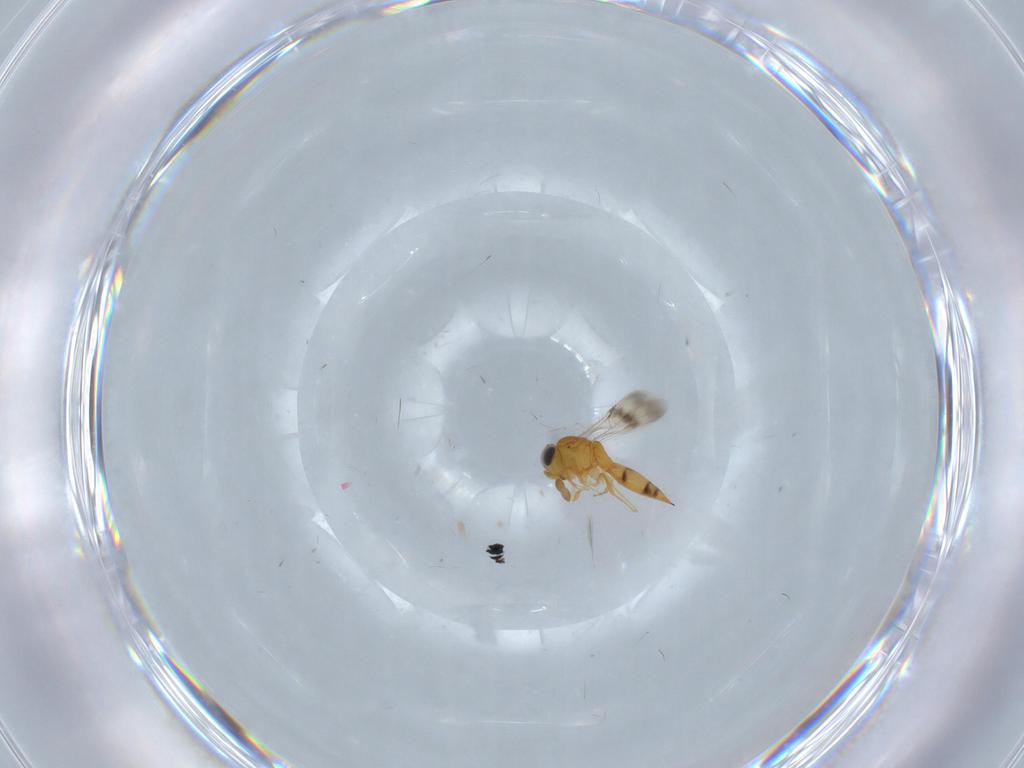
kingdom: Animalia
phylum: Arthropoda
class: Insecta
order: Hymenoptera
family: Scelionidae
